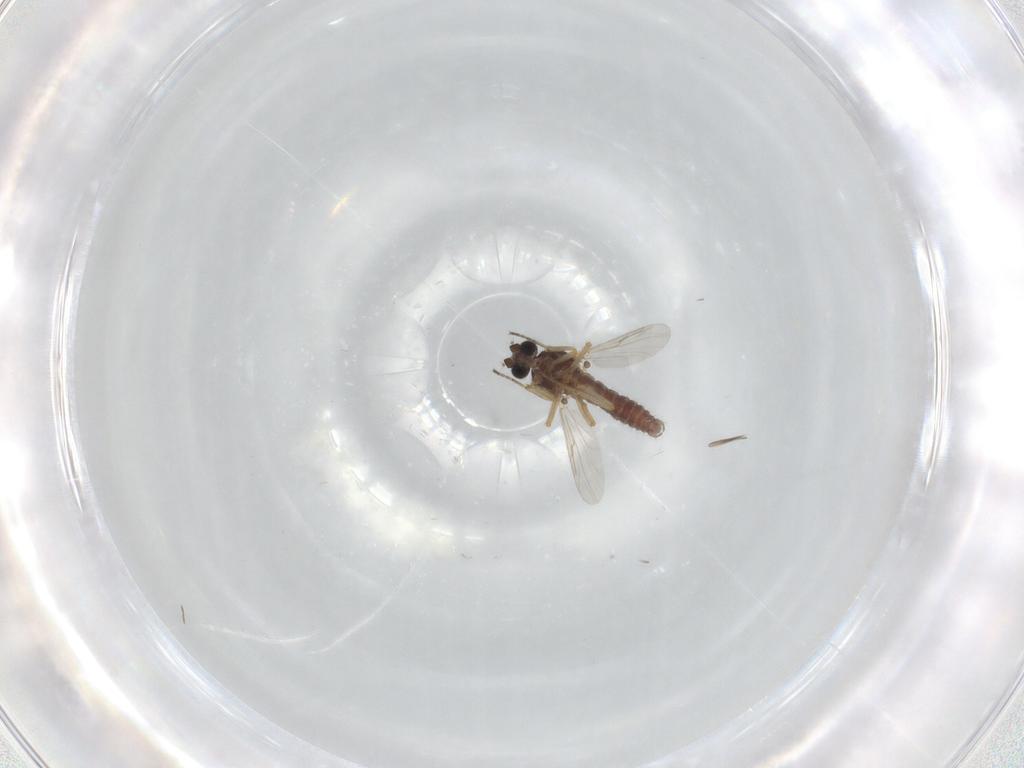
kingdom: Animalia
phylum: Arthropoda
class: Insecta
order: Diptera
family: Ceratopogonidae
